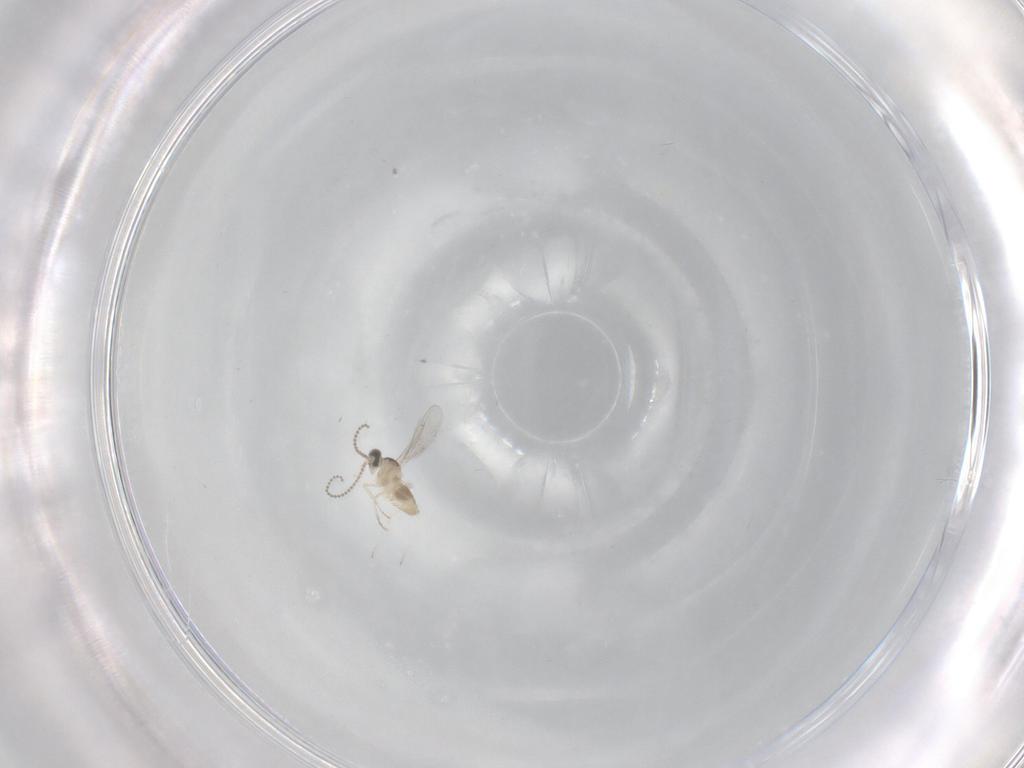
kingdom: Animalia
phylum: Arthropoda
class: Insecta
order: Diptera
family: Cecidomyiidae
